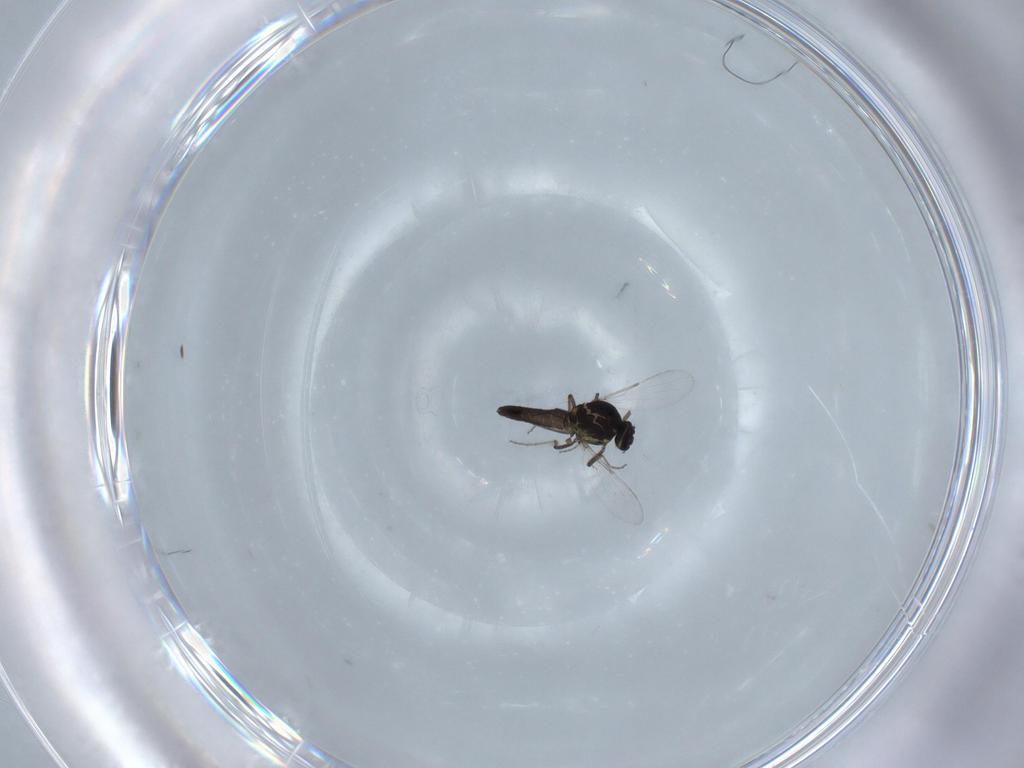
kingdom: Animalia
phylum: Arthropoda
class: Insecta
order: Diptera
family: Ceratopogonidae
